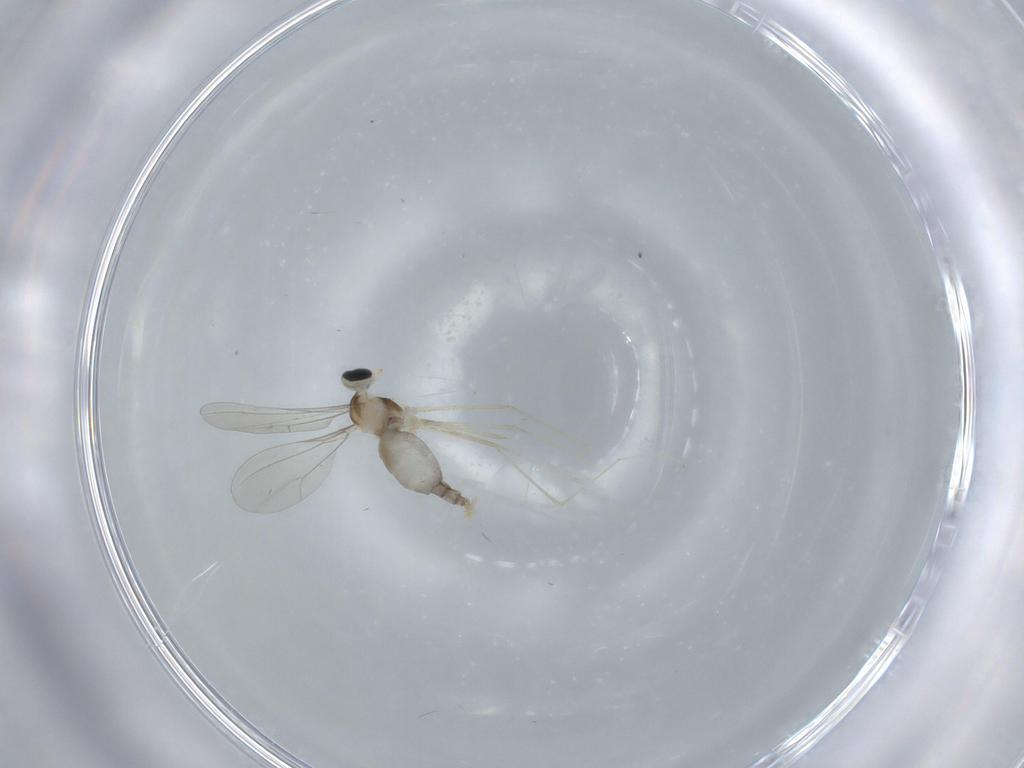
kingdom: Animalia
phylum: Arthropoda
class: Insecta
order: Diptera
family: Cecidomyiidae
